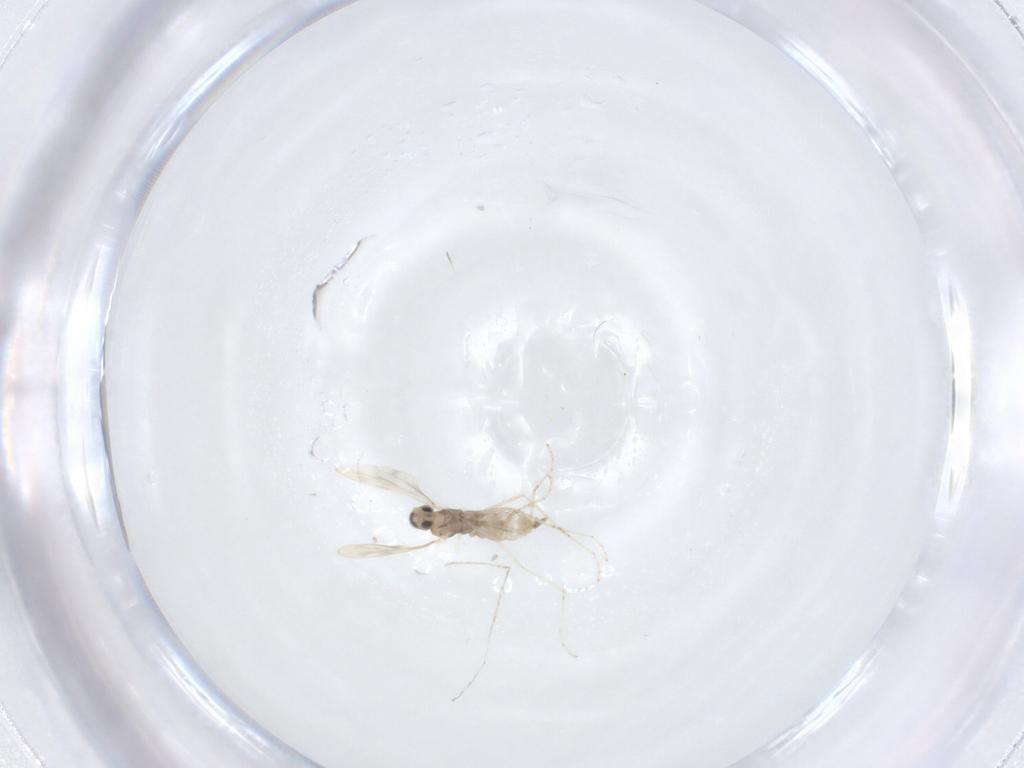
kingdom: Animalia
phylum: Arthropoda
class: Insecta
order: Diptera
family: Cecidomyiidae
